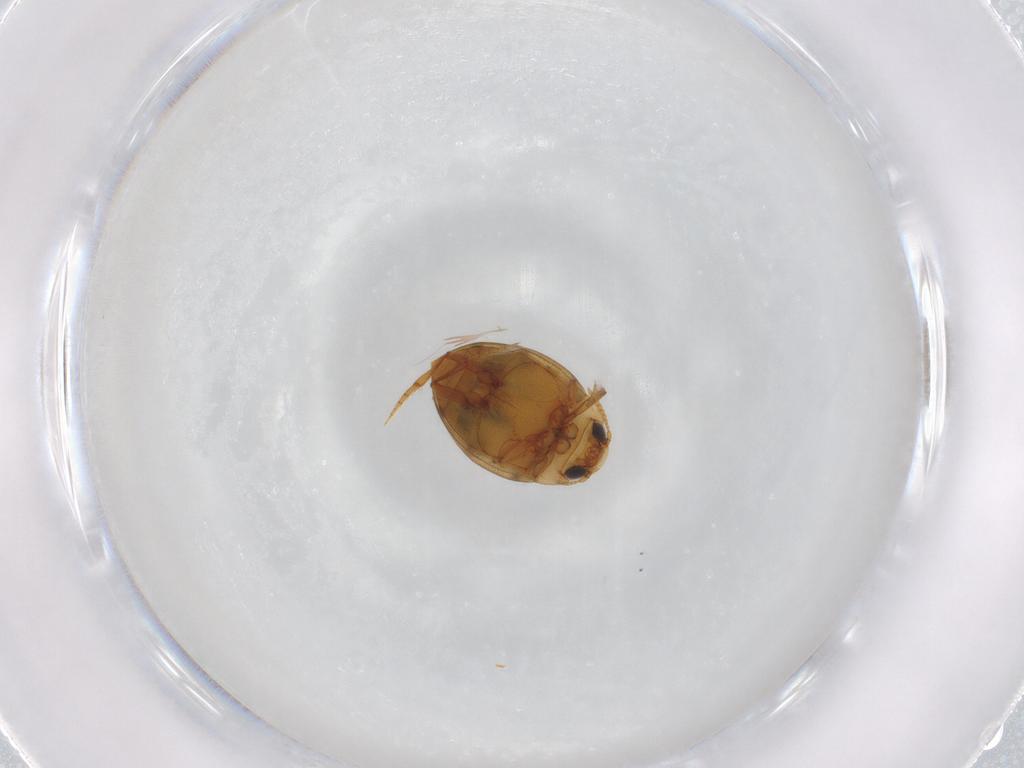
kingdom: Animalia
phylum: Arthropoda
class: Insecta
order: Coleoptera
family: Dytiscidae
